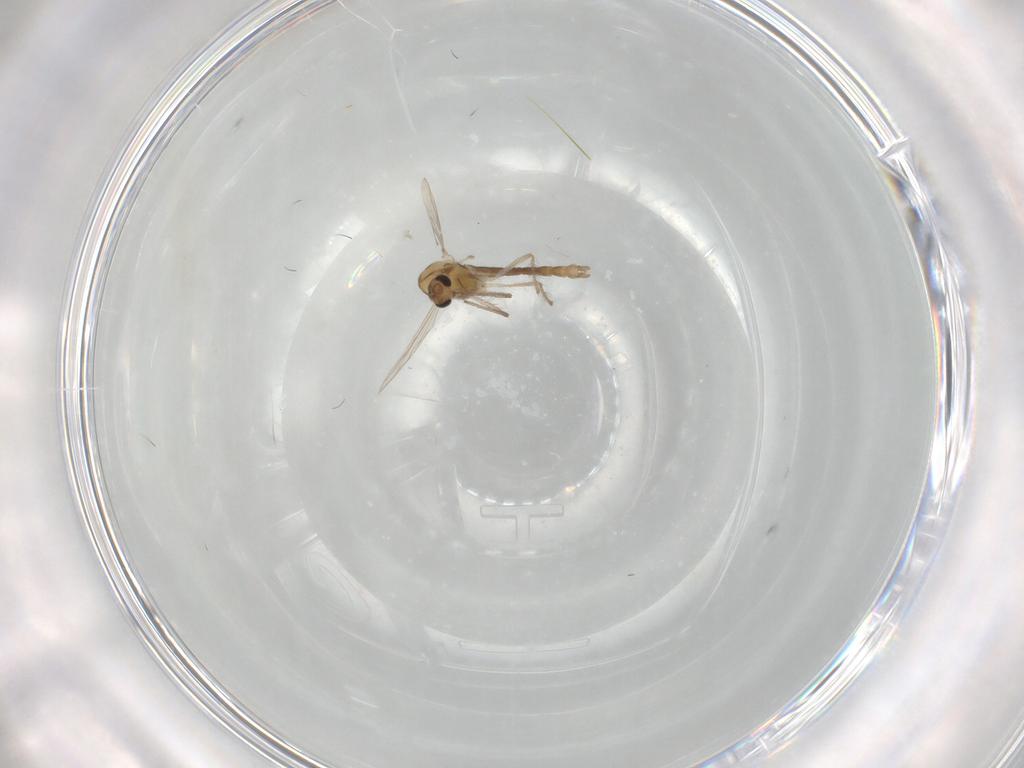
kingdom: Animalia
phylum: Arthropoda
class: Insecta
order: Diptera
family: Chironomidae
